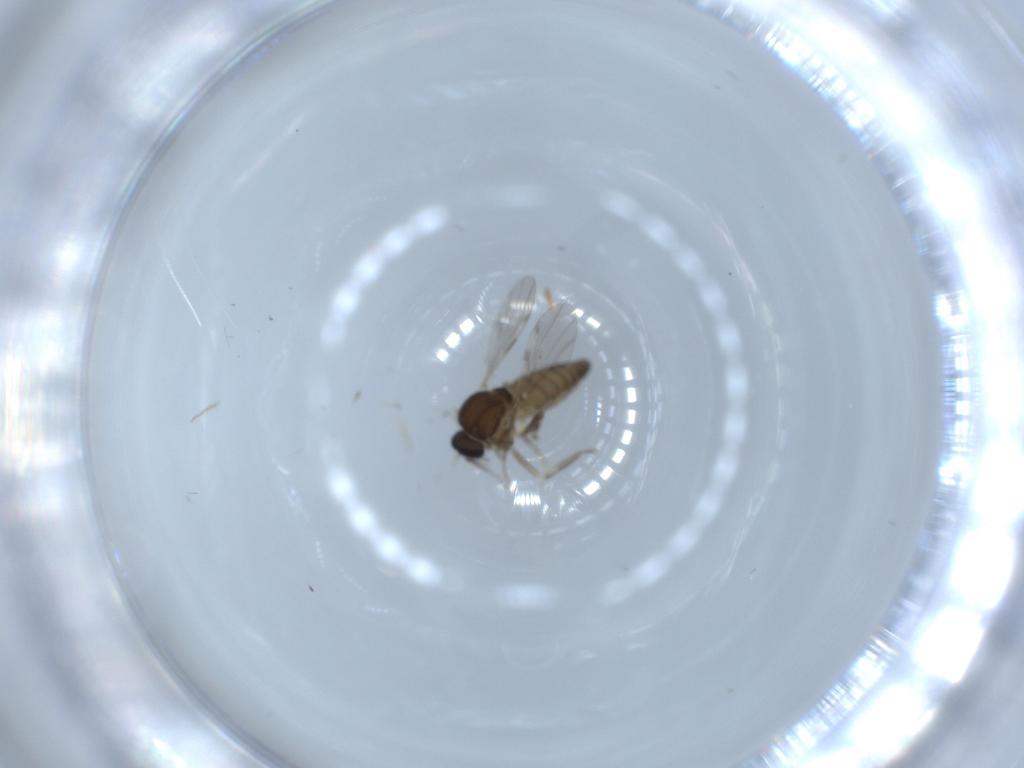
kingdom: Animalia
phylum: Arthropoda
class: Insecta
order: Diptera
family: Ceratopogonidae
